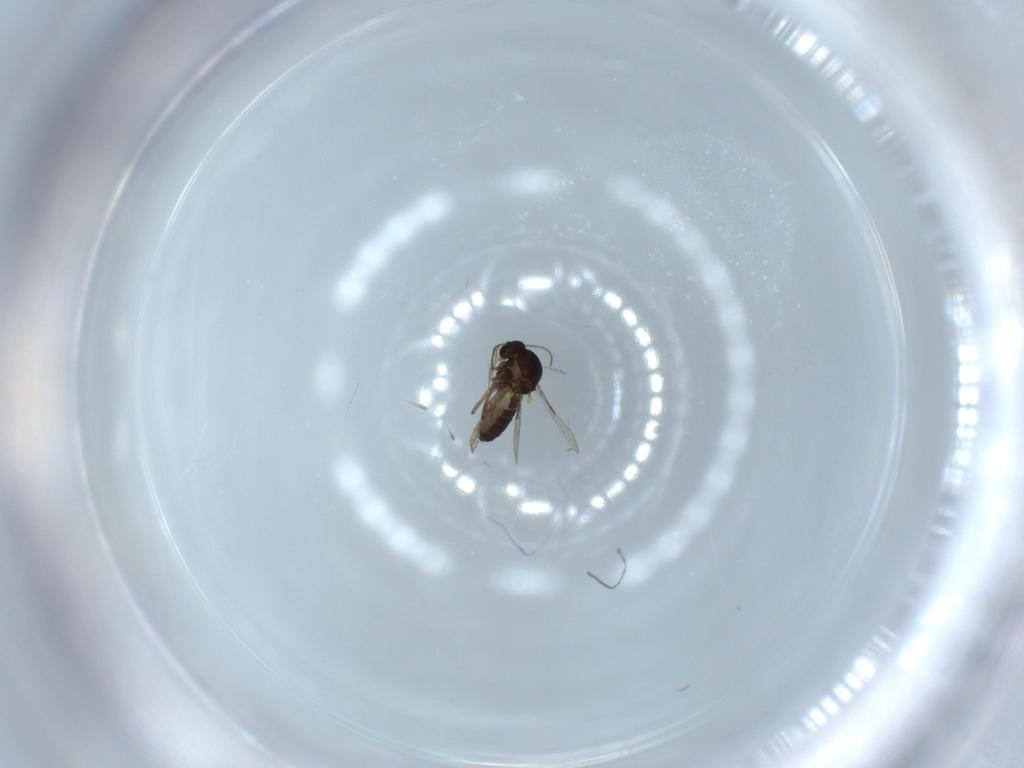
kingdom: Animalia
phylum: Arthropoda
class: Insecta
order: Diptera
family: Ceratopogonidae
